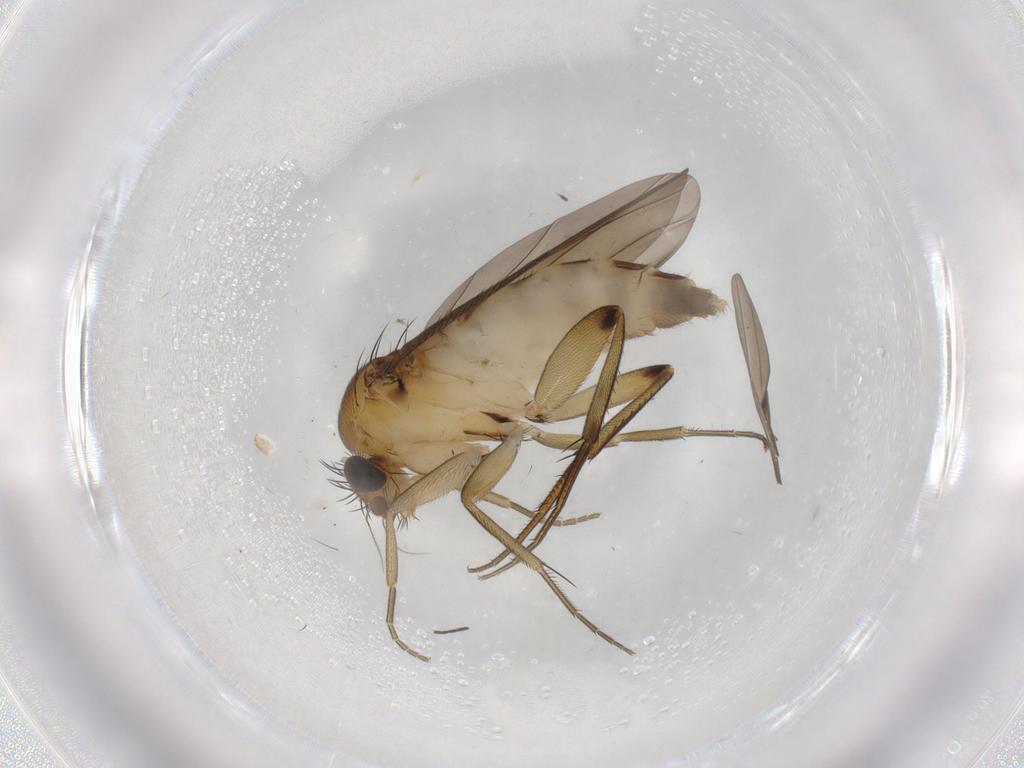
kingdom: Animalia
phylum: Arthropoda
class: Insecta
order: Diptera
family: Phoridae
